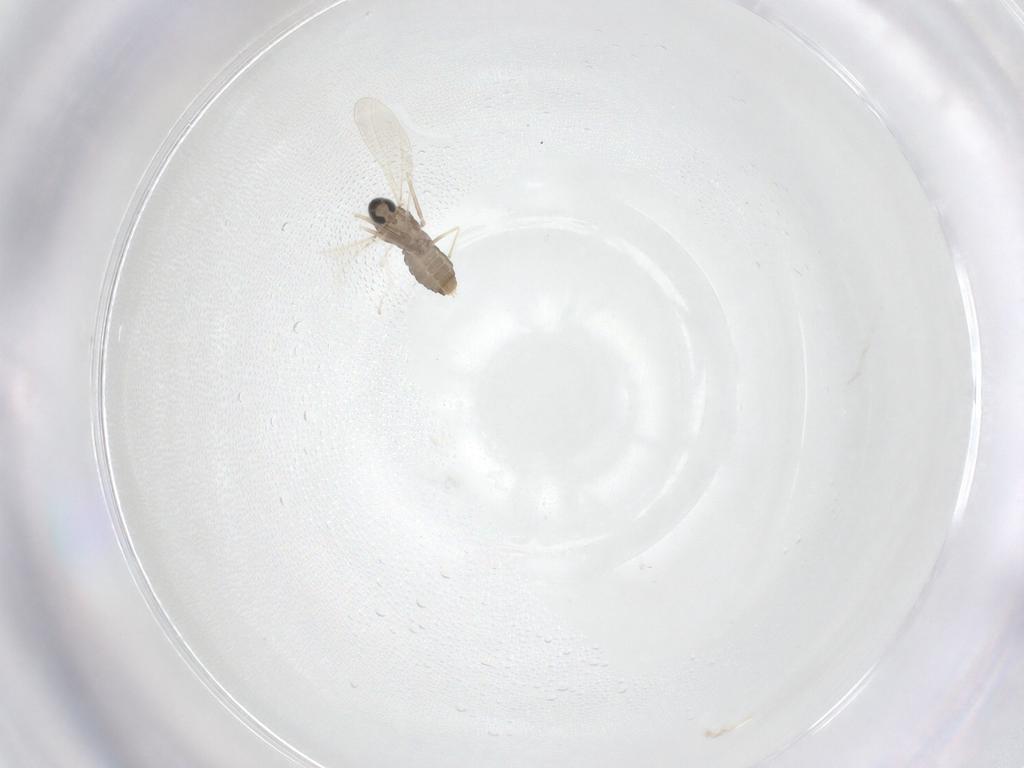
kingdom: Animalia
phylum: Arthropoda
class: Insecta
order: Diptera
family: Cecidomyiidae
